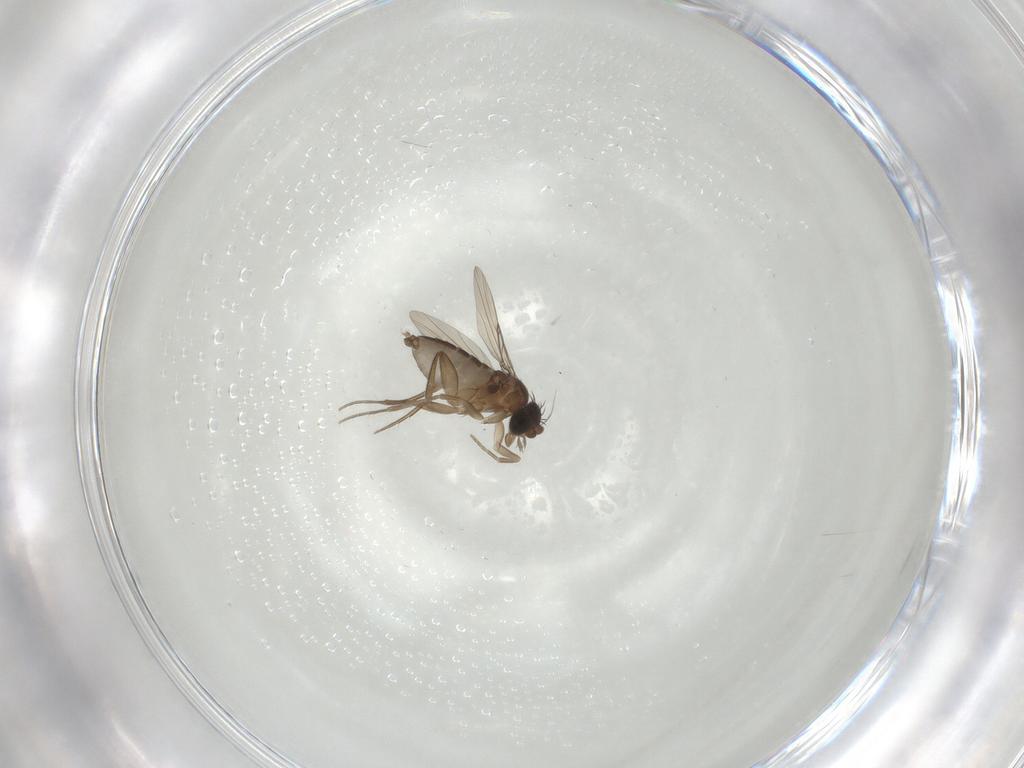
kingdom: Animalia
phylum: Arthropoda
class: Insecta
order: Diptera
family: Phoridae
